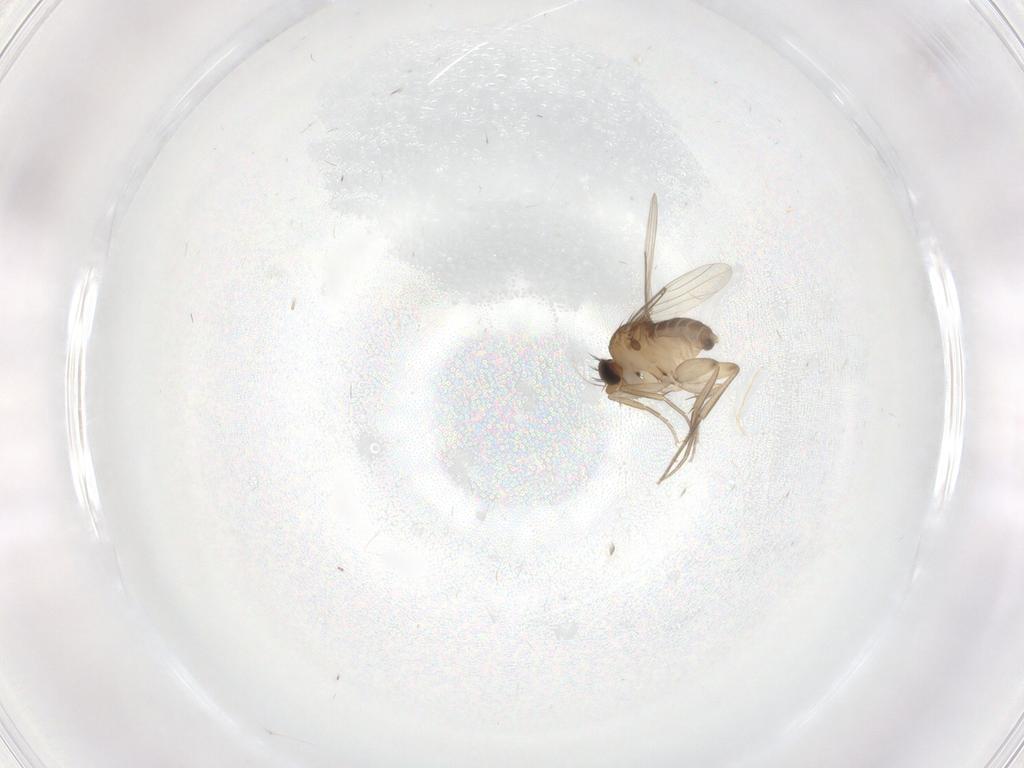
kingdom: Animalia
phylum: Arthropoda
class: Insecta
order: Diptera
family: Phoridae
